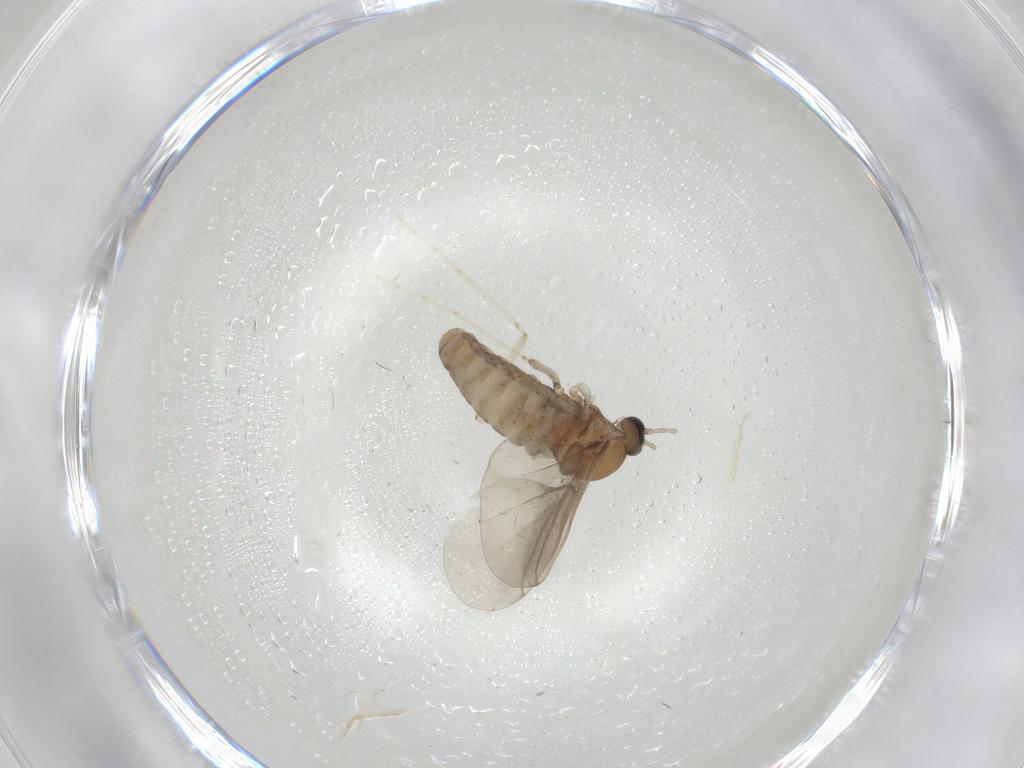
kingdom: Animalia
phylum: Arthropoda
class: Insecta
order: Diptera
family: Cecidomyiidae
